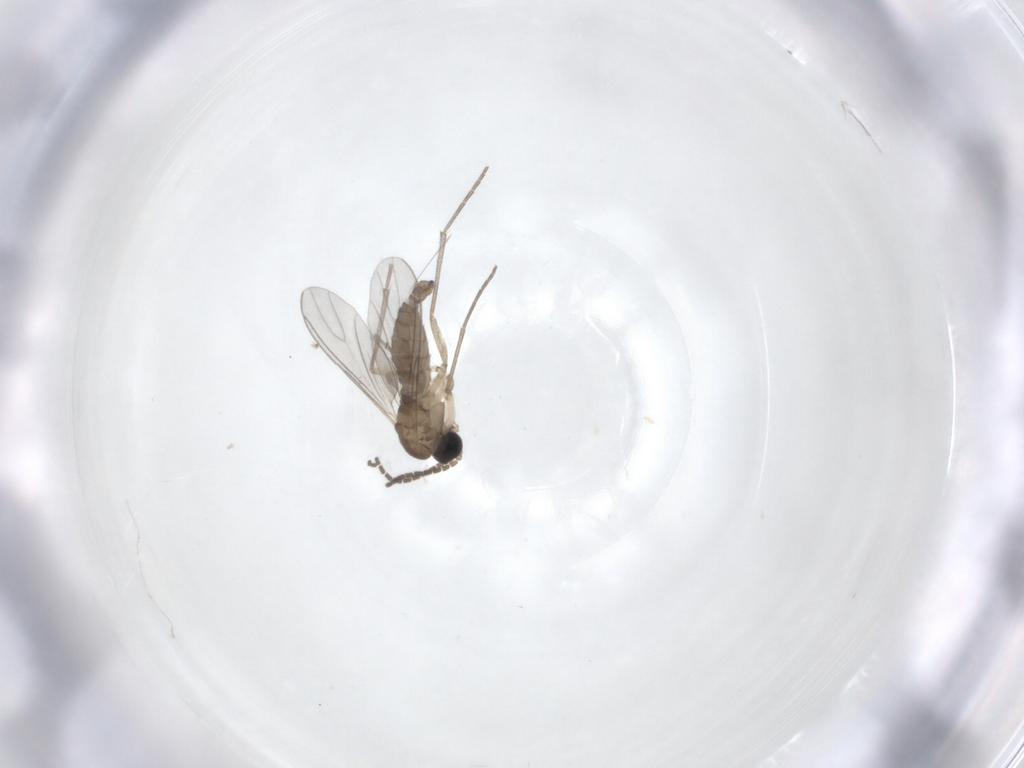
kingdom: Animalia
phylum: Arthropoda
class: Insecta
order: Diptera
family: Sciaridae
